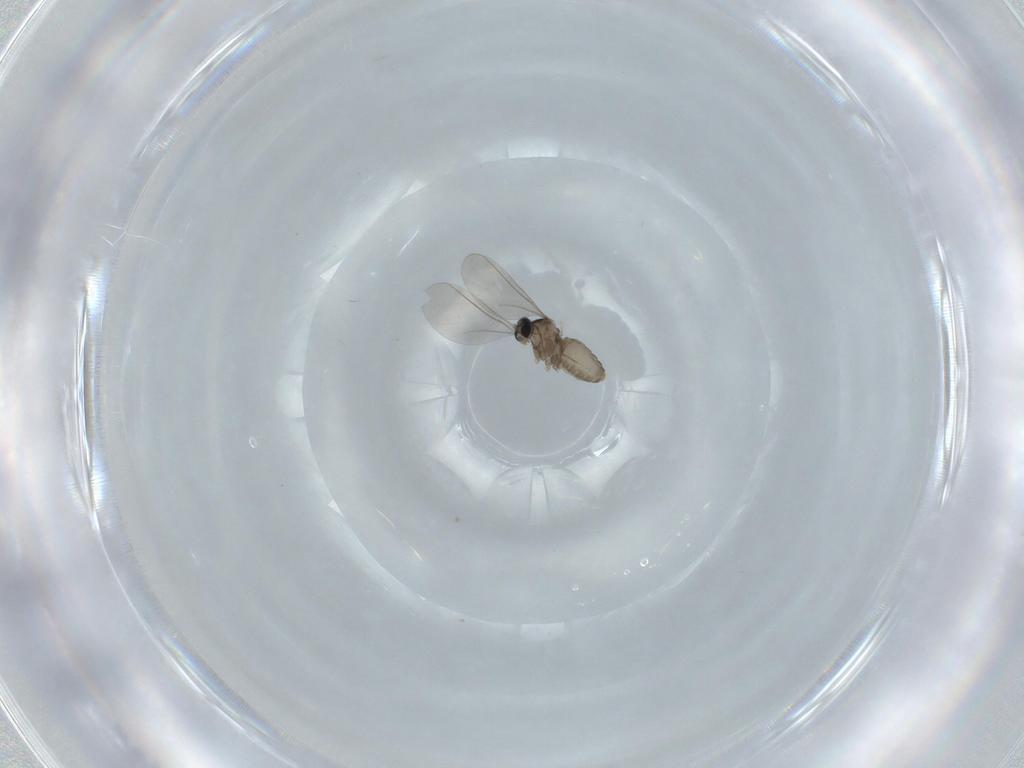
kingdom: Animalia
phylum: Arthropoda
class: Insecta
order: Diptera
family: Cecidomyiidae
